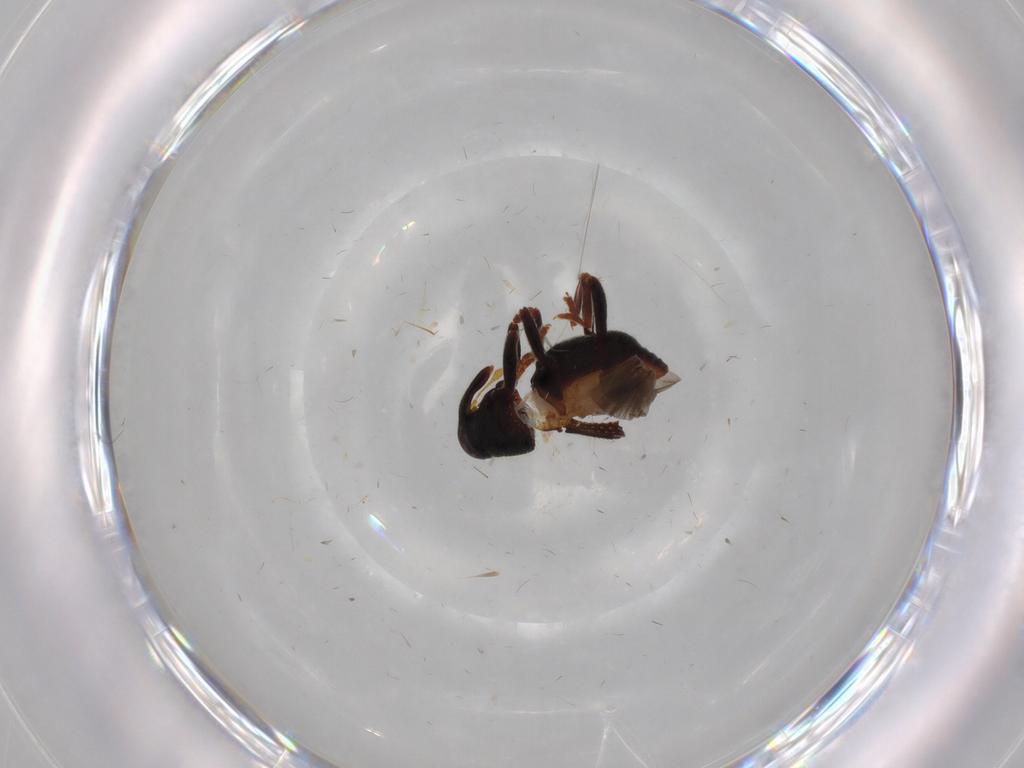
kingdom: Animalia
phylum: Arthropoda
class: Insecta
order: Coleoptera
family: Curculionidae
